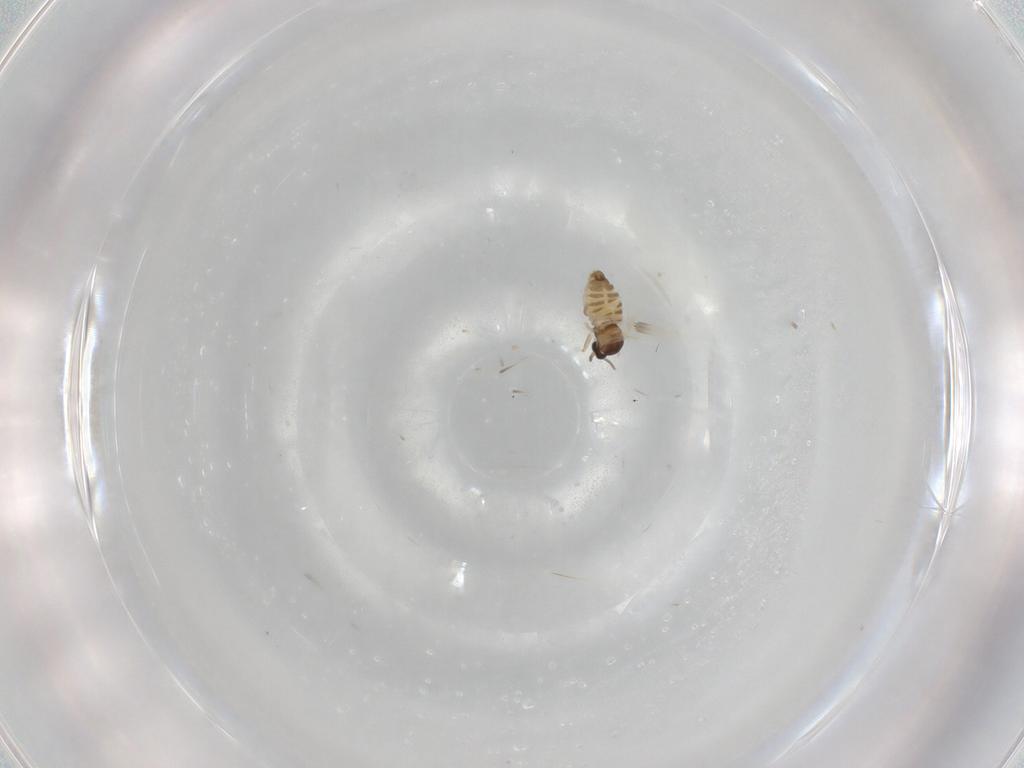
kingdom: Animalia
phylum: Arthropoda
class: Insecta
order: Diptera
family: Cecidomyiidae
